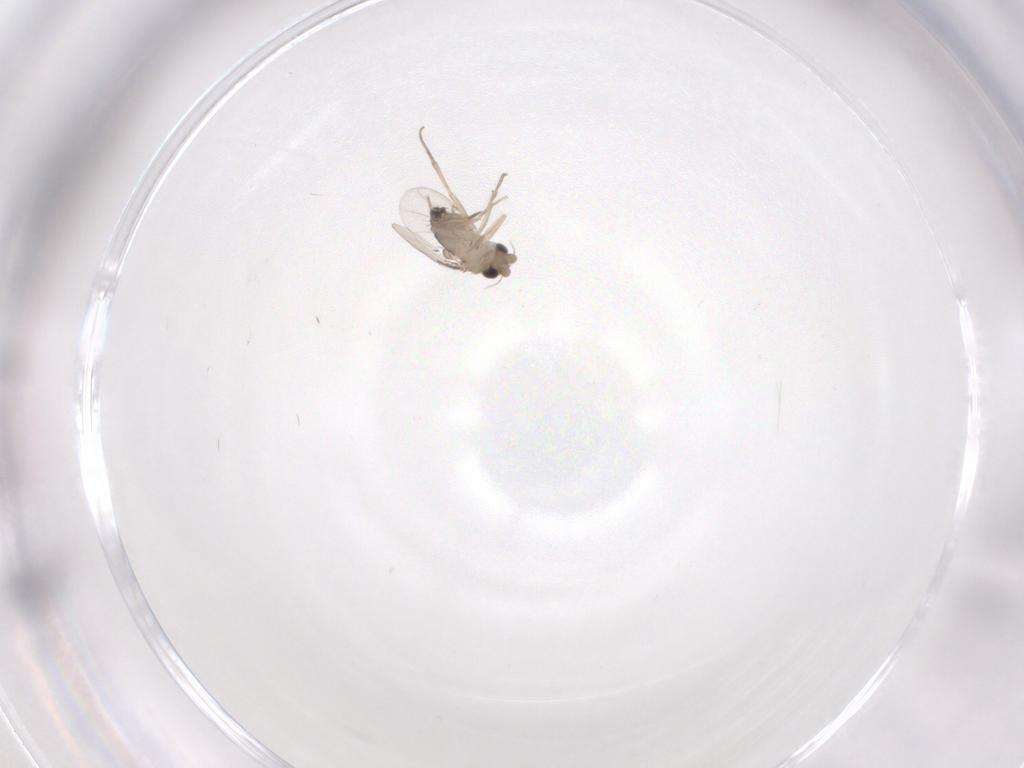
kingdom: Animalia
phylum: Arthropoda
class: Insecta
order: Diptera
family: Phoridae
